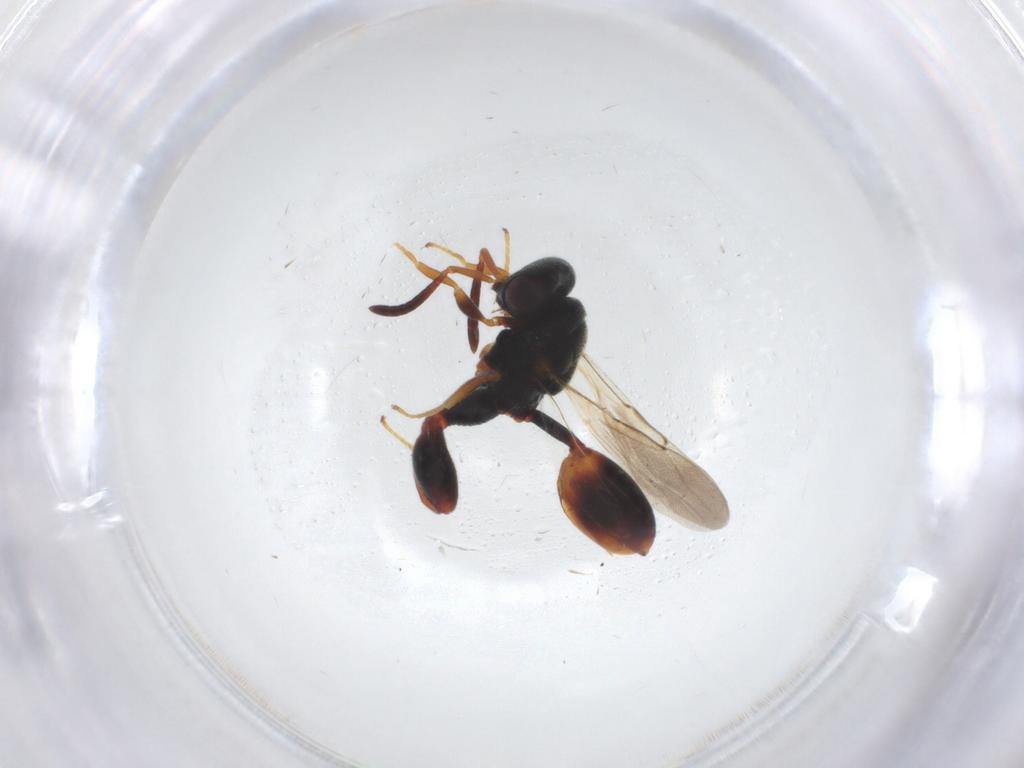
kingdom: Animalia
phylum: Arthropoda
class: Insecta
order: Hymenoptera
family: Chalcididae
